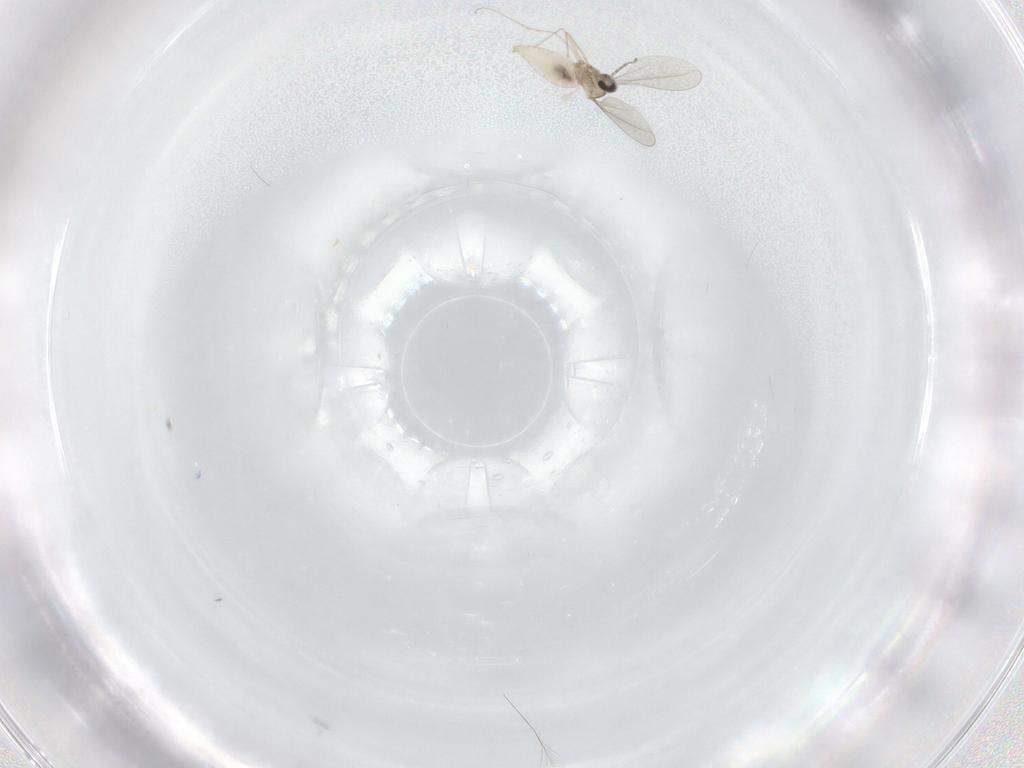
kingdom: Animalia
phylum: Arthropoda
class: Insecta
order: Diptera
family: Cecidomyiidae
